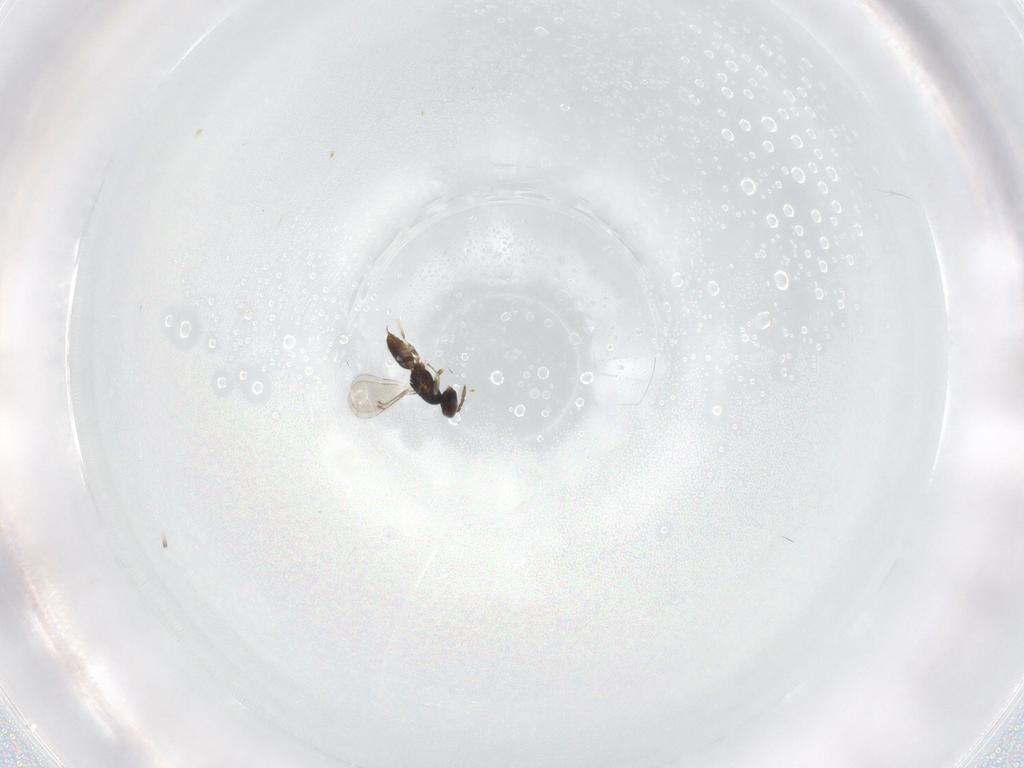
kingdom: Animalia
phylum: Arthropoda
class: Insecta
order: Hymenoptera
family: Eulophidae
